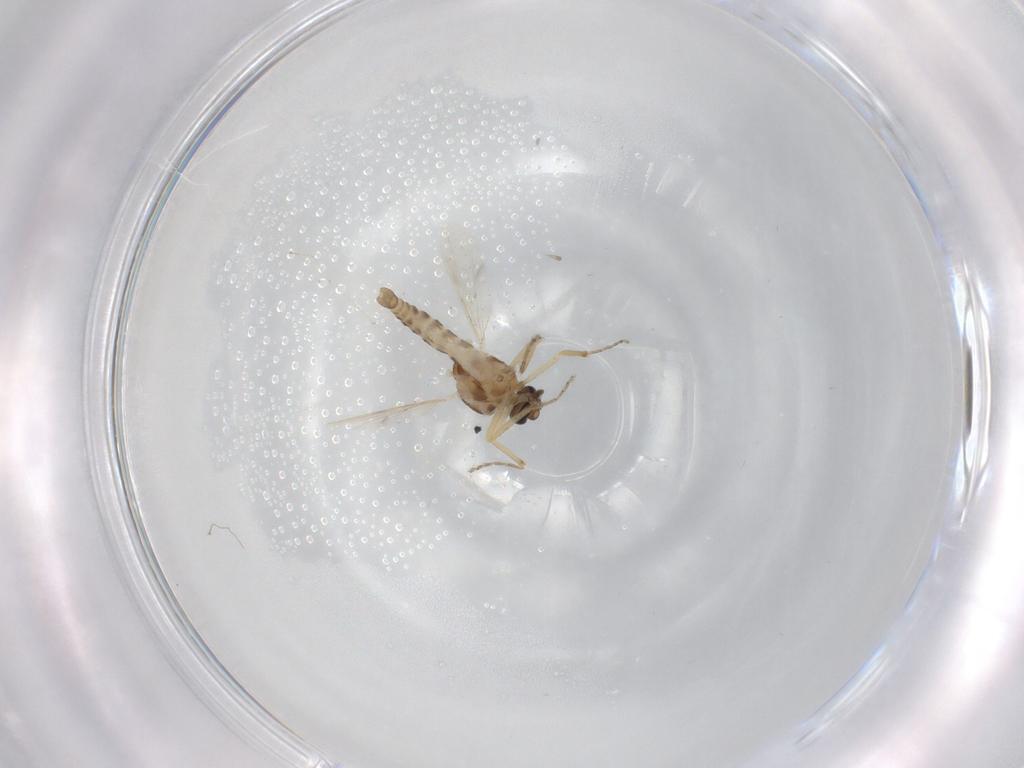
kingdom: Animalia
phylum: Arthropoda
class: Insecta
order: Diptera
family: Ceratopogonidae
